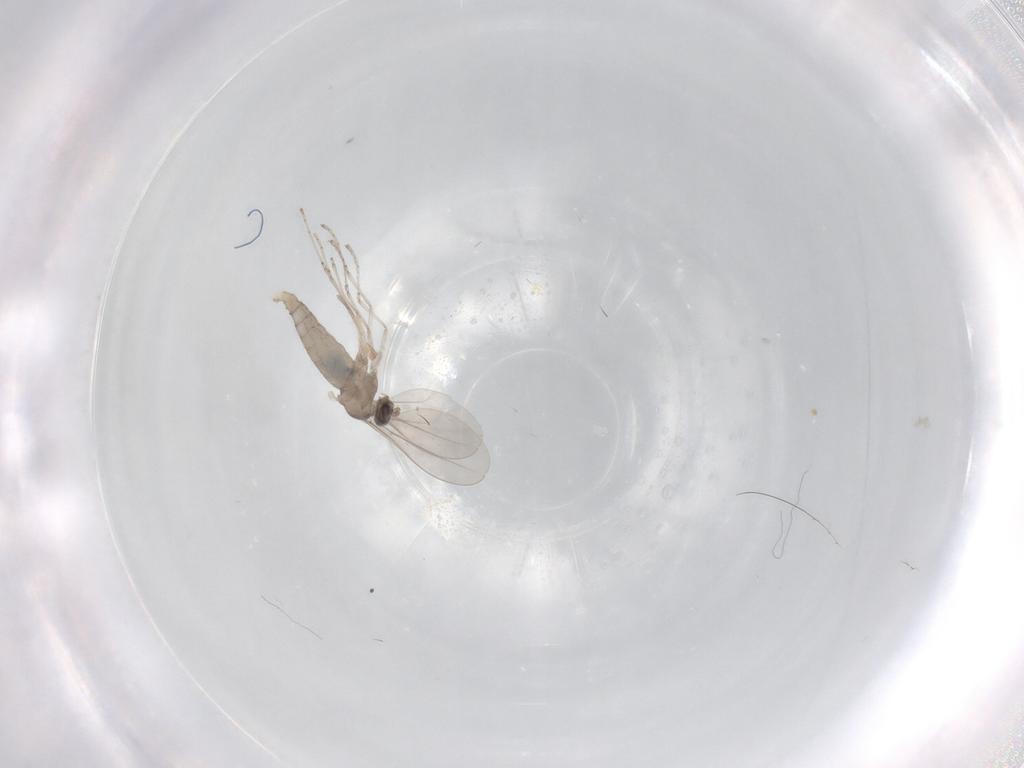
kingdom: Animalia
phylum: Arthropoda
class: Insecta
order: Diptera
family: Cecidomyiidae
